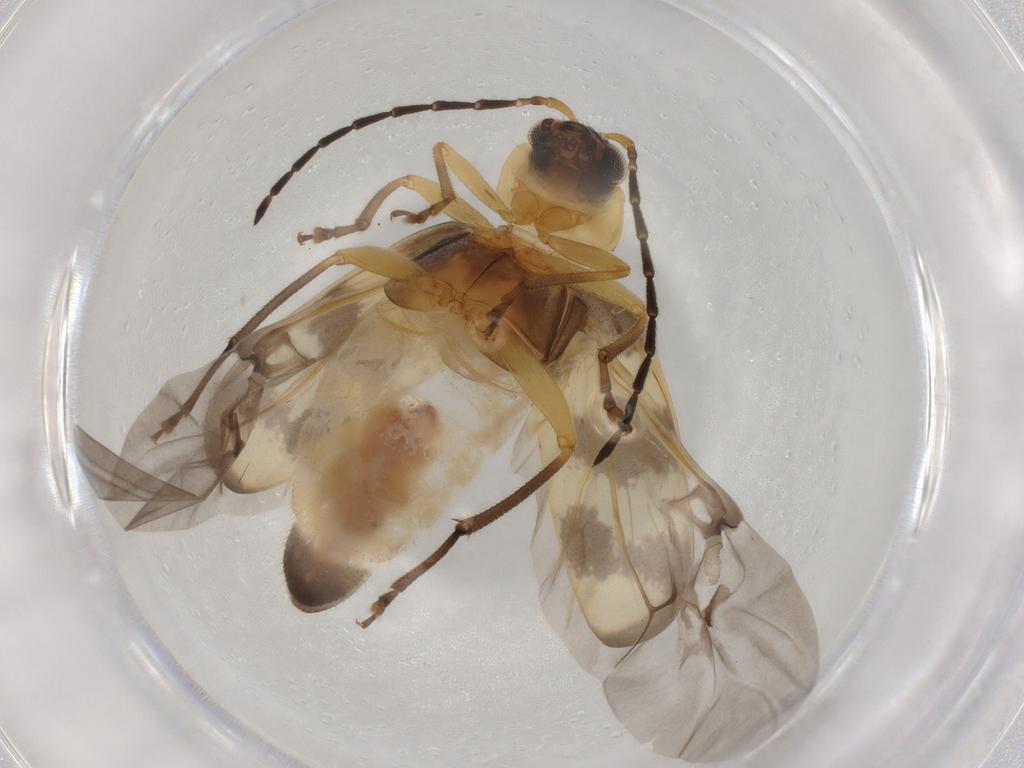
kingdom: Animalia
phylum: Arthropoda
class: Insecta
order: Coleoptera
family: Chrysomelidae
